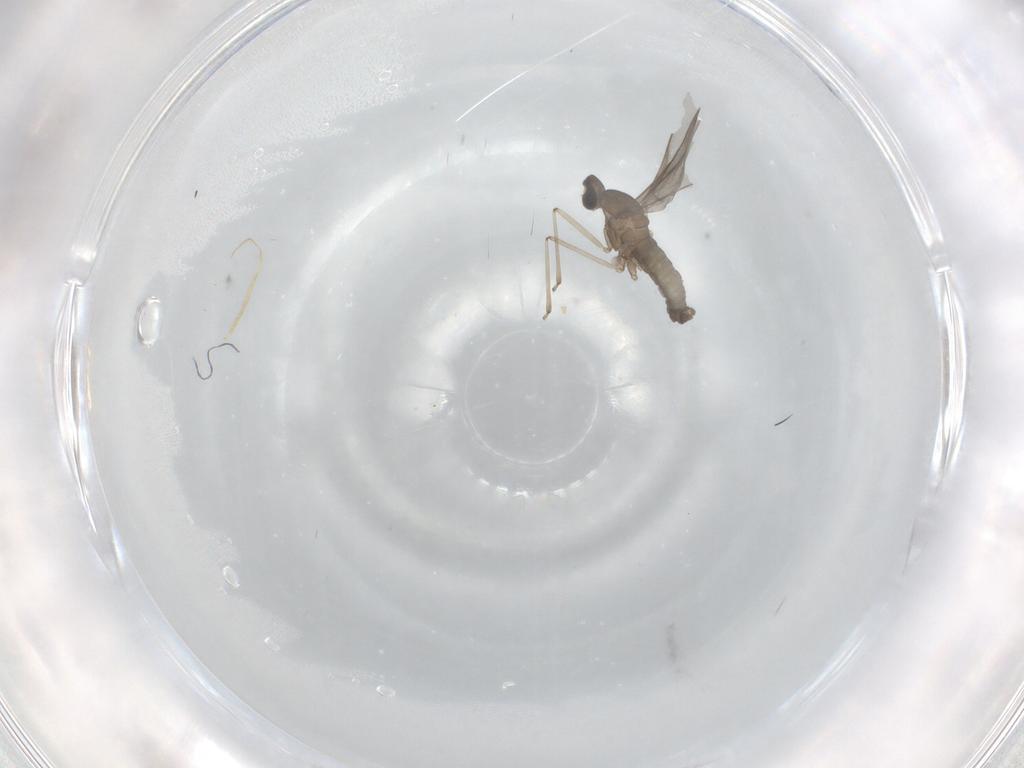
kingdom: Animalia
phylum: Arthropoda
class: Insecta
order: Diptera
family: Cecidomyiidae
